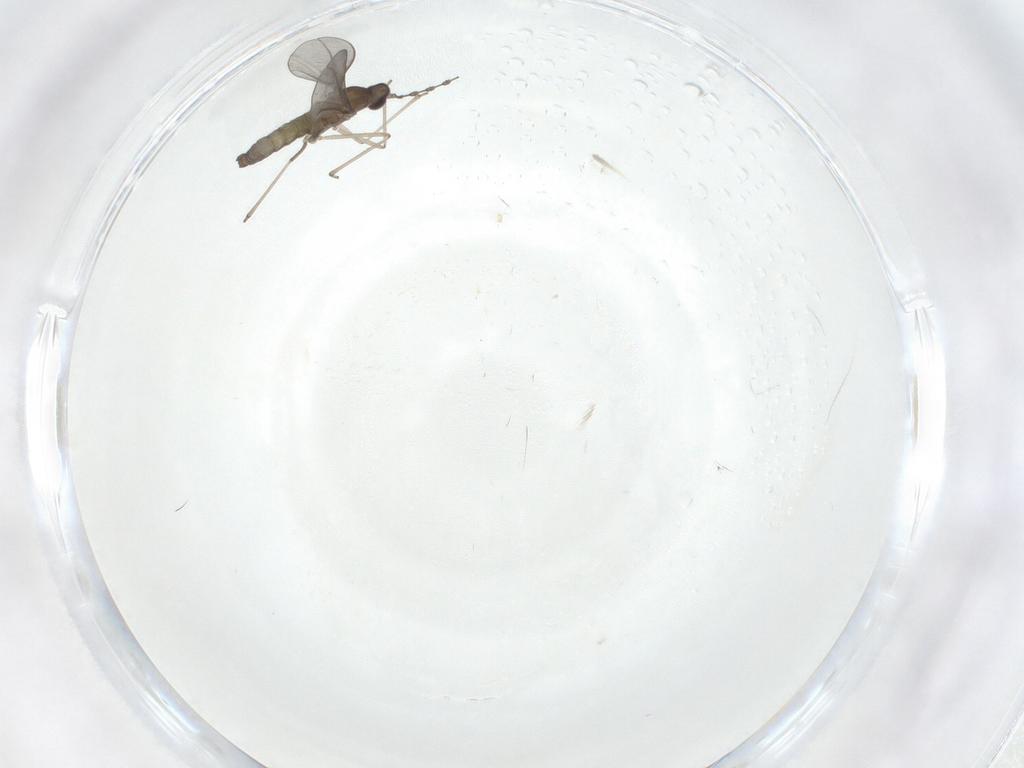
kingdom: Animalia
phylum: Arthropoda
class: Insecta
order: Diptera
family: Cecidomyiidae
